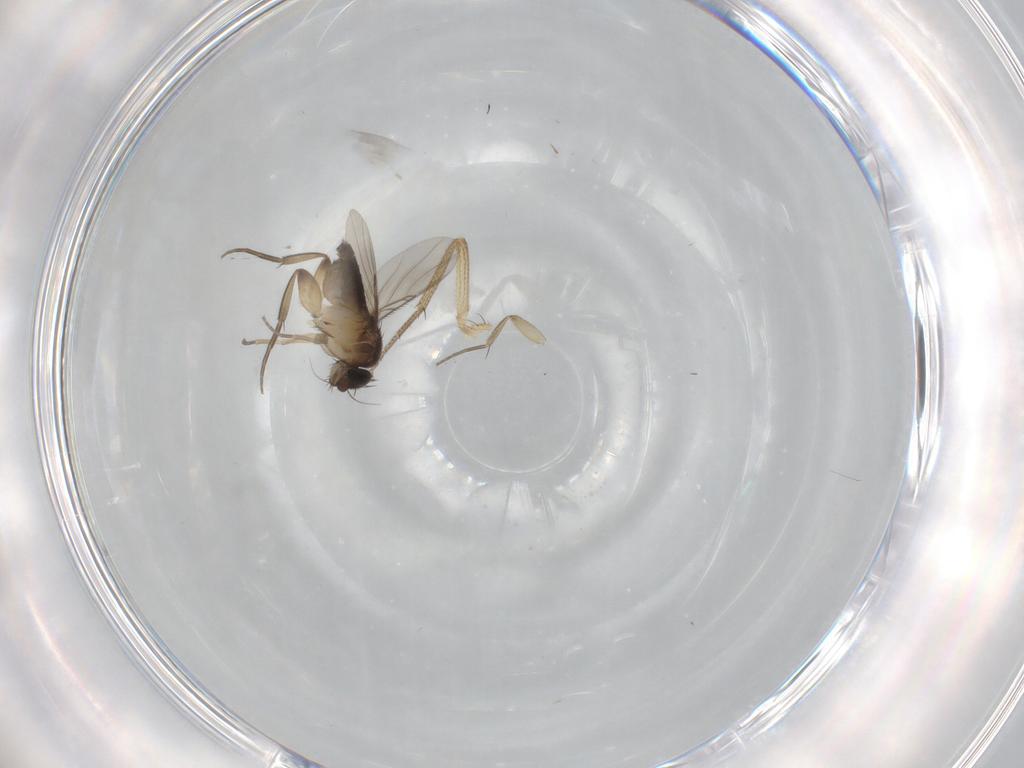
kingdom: Animalia
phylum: Arthropoda
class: Insecta
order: Diptera
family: Phoridae
